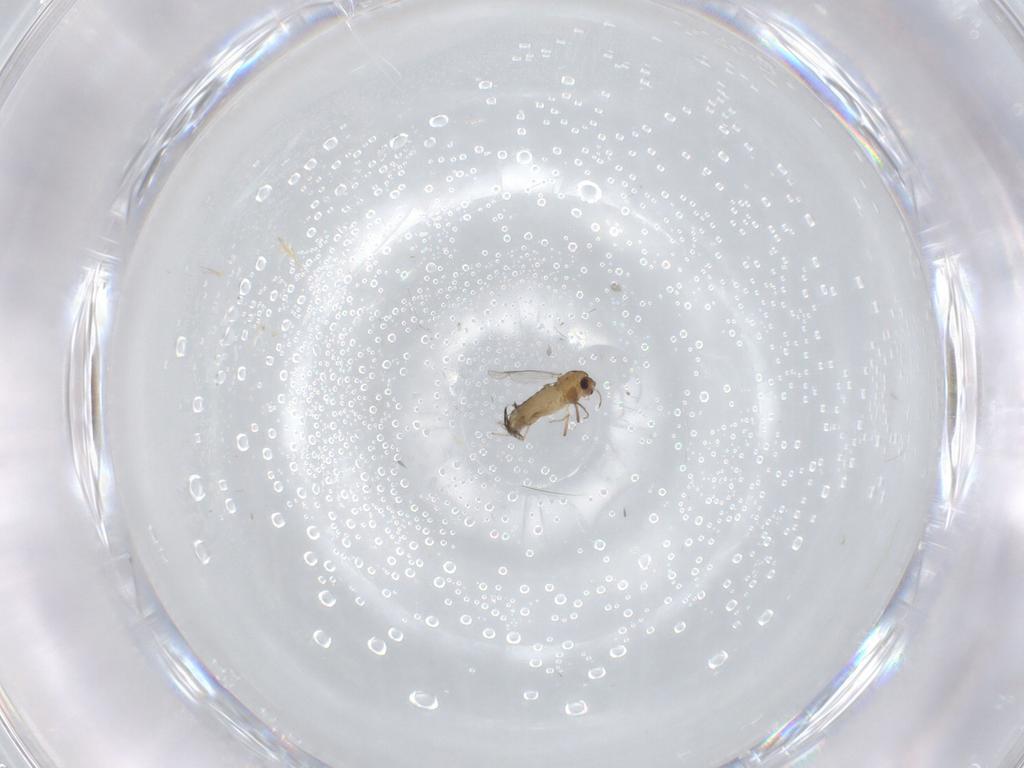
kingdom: Animalia
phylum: Arthropoda
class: Insecta
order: Diptera
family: Chironomidae
